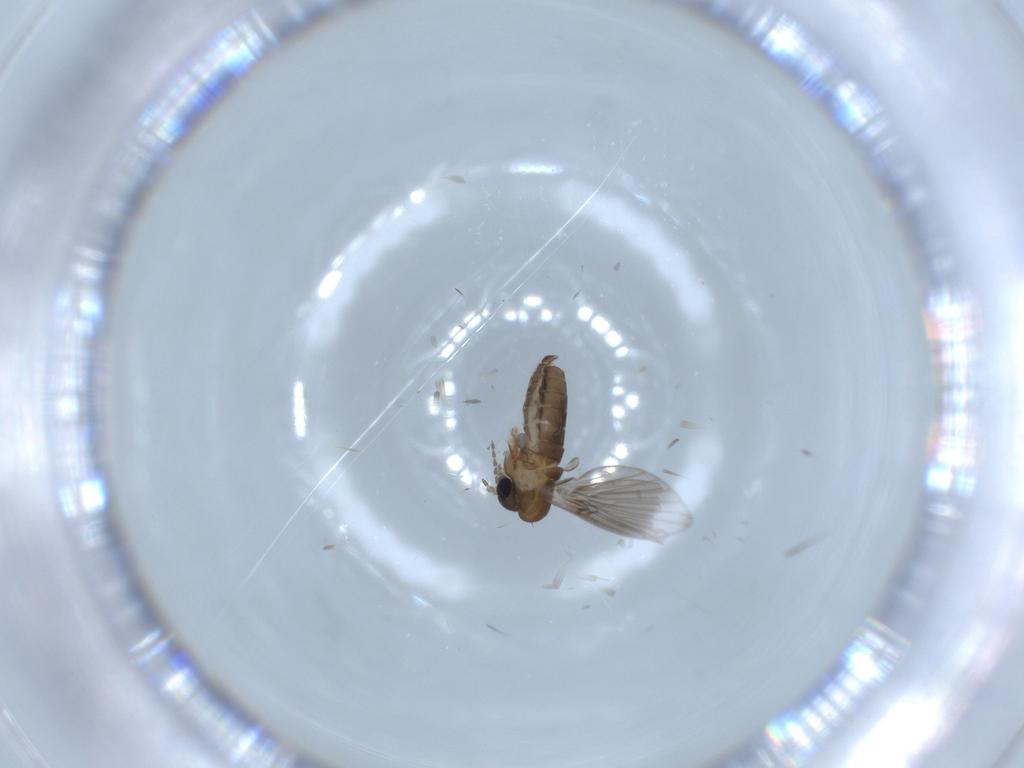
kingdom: Animalia
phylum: Arthropoda
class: Insecta
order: Diptera
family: Psychodidae
